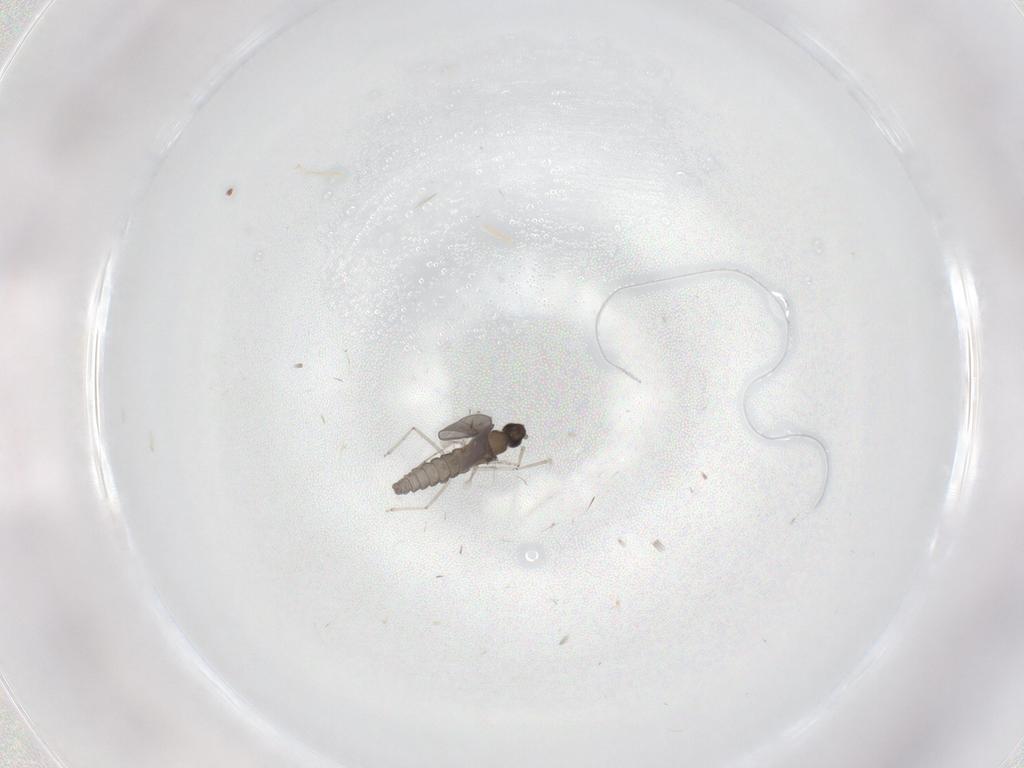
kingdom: Animalia
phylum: Arthropoda
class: Insecta
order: Diptera
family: Cecidomyiidae
